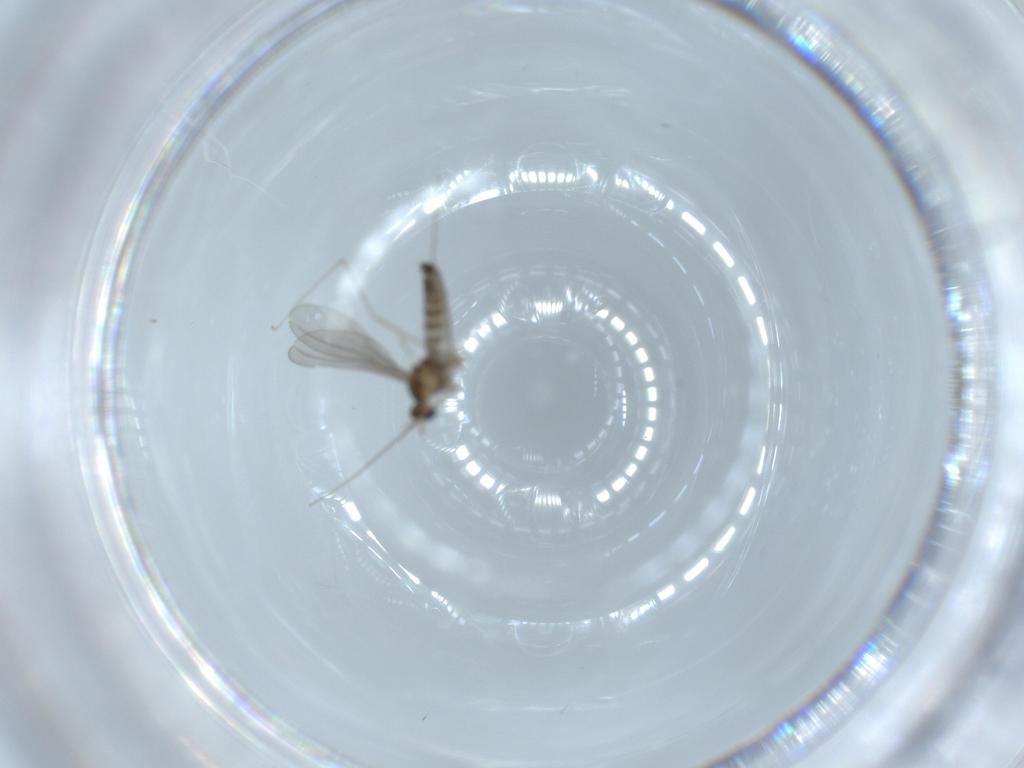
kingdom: Animalia
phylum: Arthropoda
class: Insecta
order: Diptera
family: Cecidomyiidae
